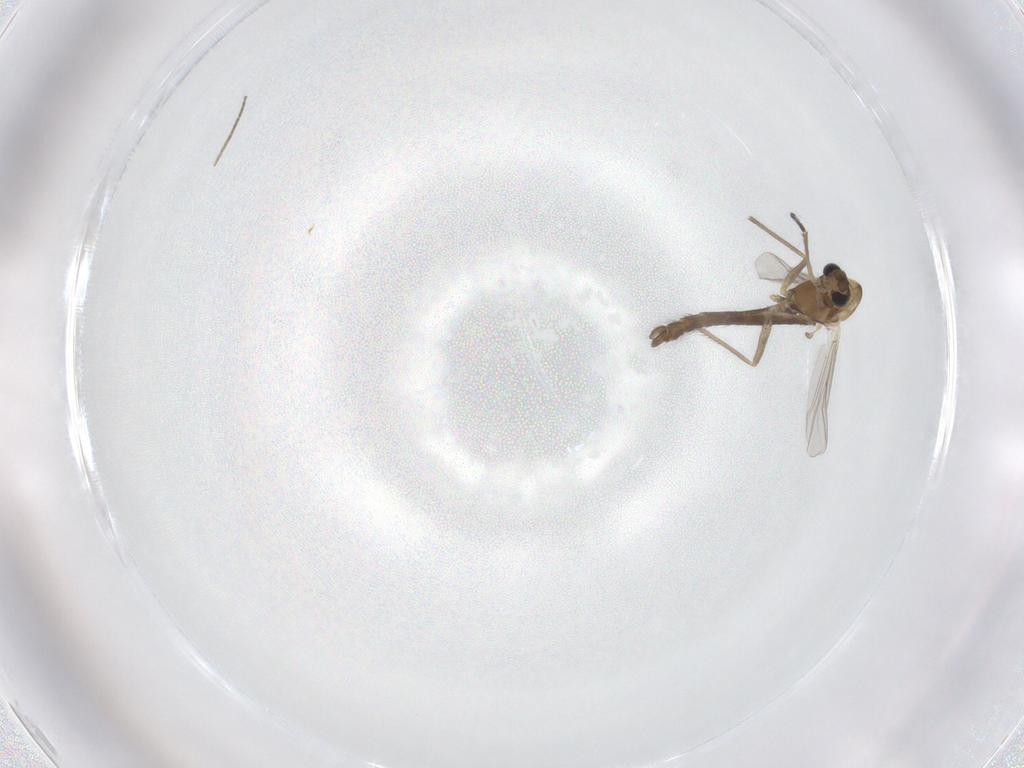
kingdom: Animalia
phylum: Arthropoda
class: Insecta
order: Diptera
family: Chironomidae
